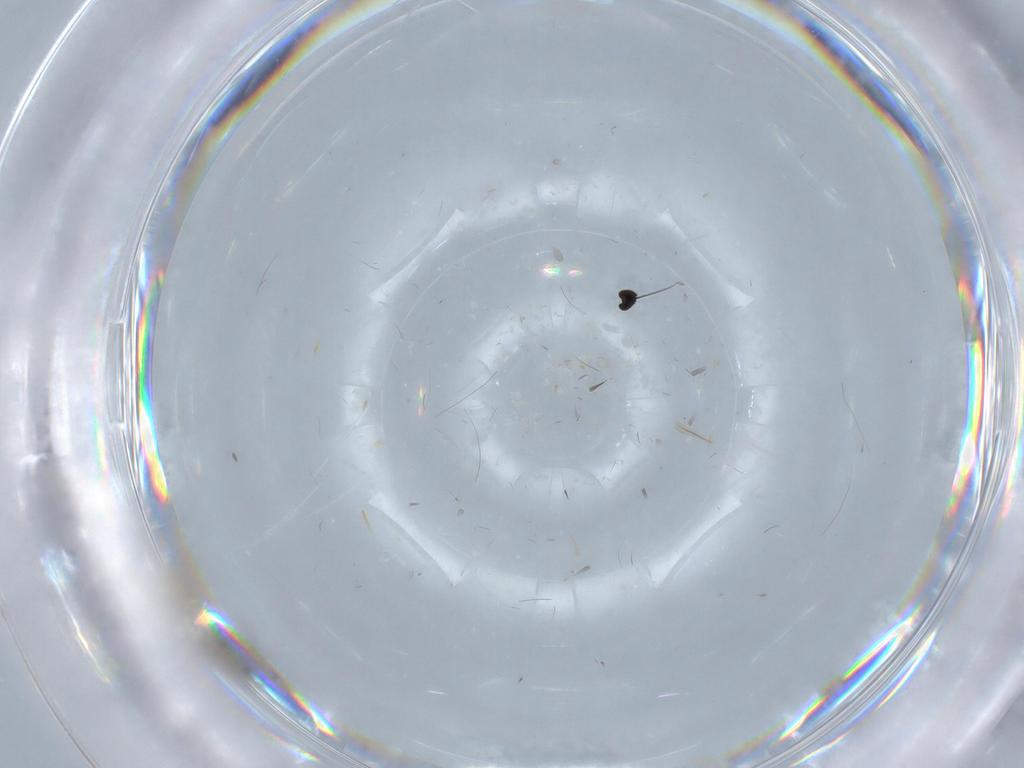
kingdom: Animalia
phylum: Arthropoda
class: Insecta
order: Diptera
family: Cecidomyiidae
